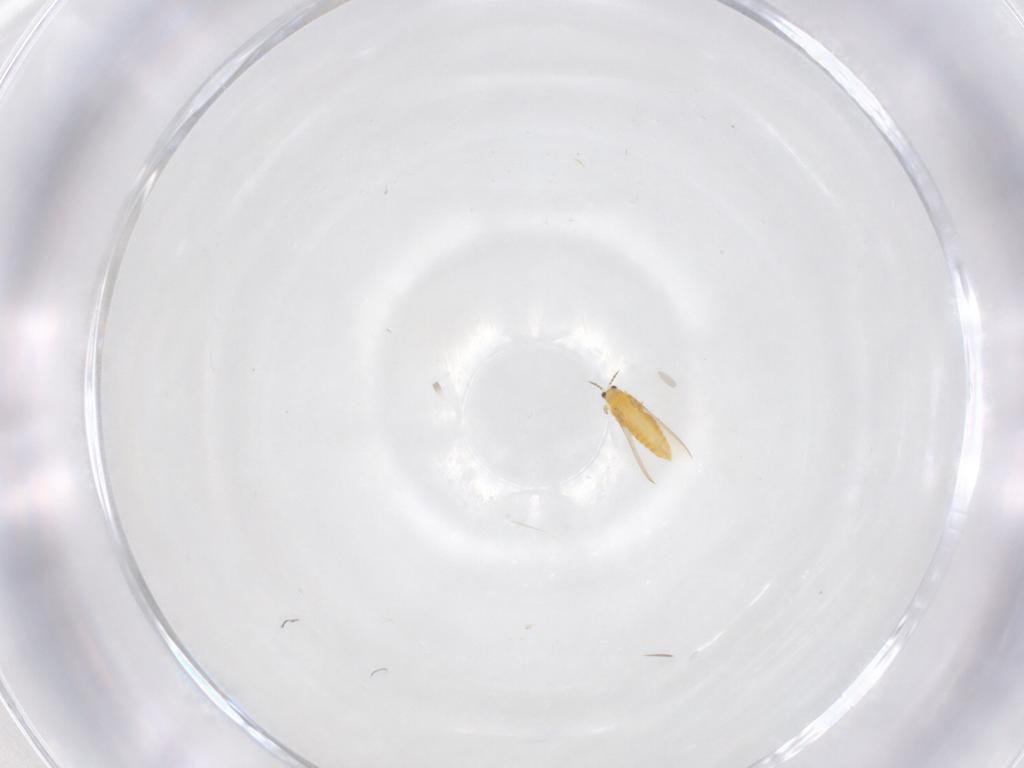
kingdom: Animalia
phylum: Arthropoda
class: Insecta
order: Thysanoptera
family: Thripidae
